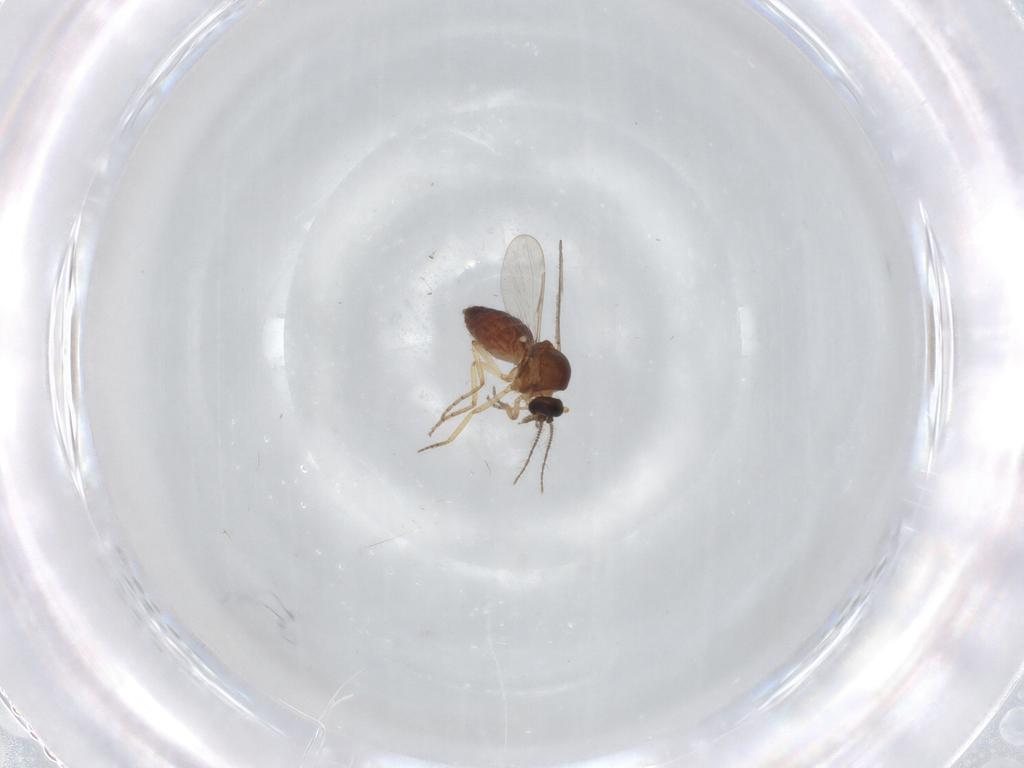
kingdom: Animalia
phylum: Arthropoda
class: Insecta
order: Diptera
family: Ceratopogonidae
